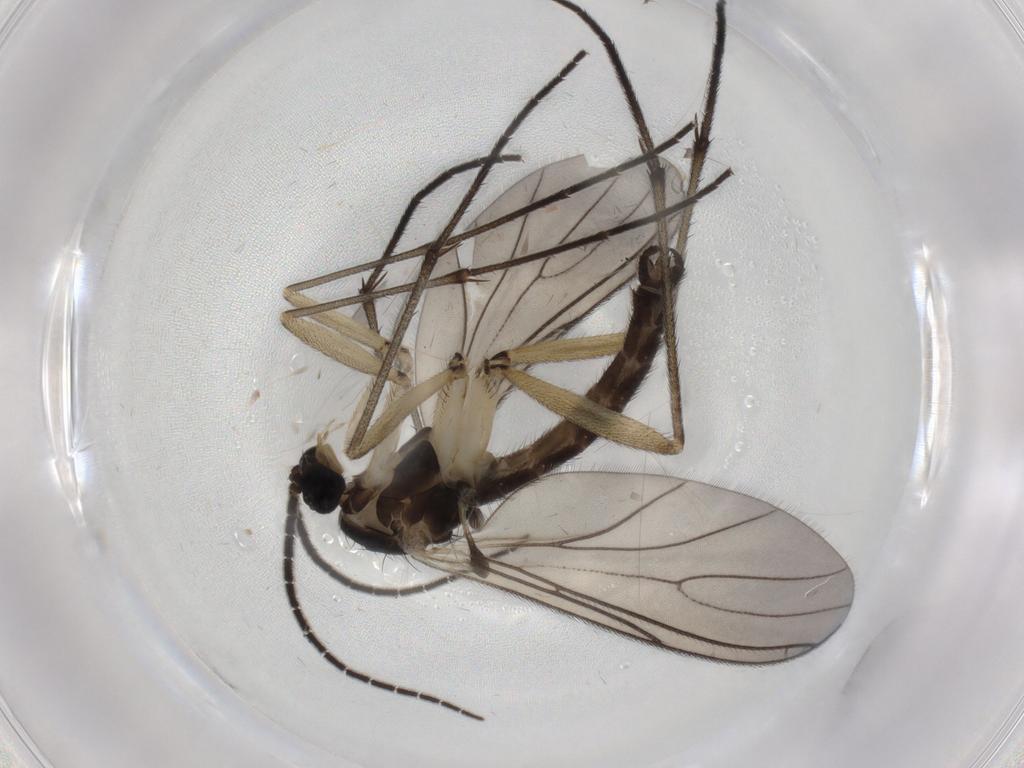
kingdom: Animalia
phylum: Arthropoda
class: Insecta
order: Diptera
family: Sciaridae
